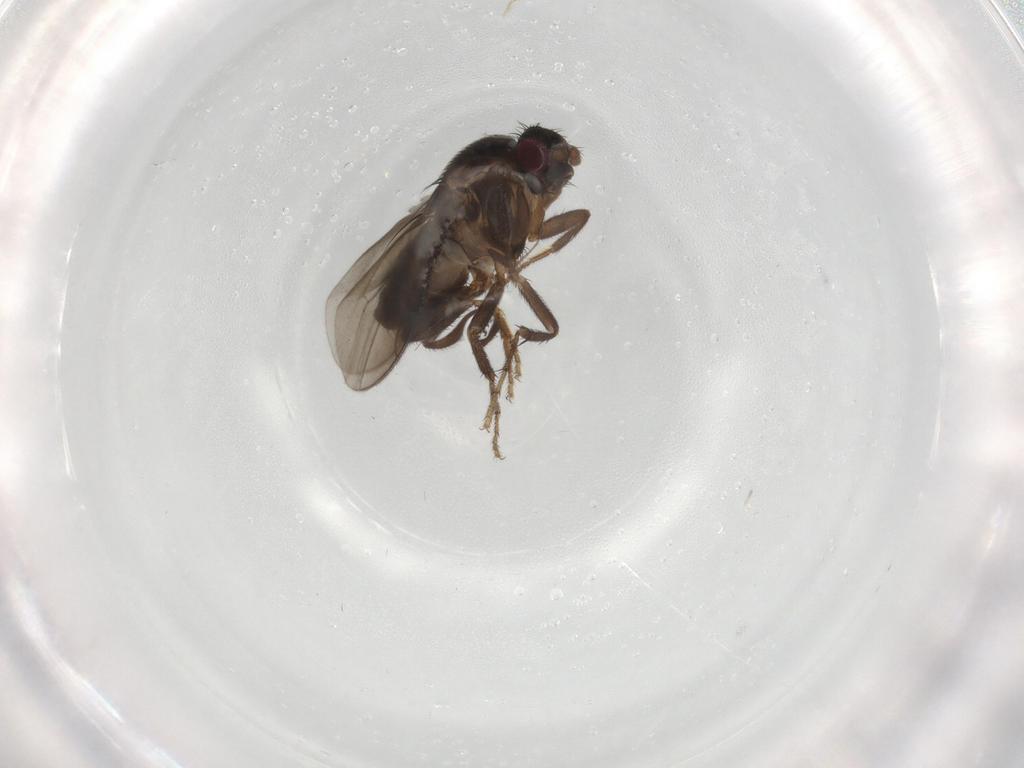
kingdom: Animalia
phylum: Arthropoda
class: Insecta
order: Diptera
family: Sphaeroceridae
